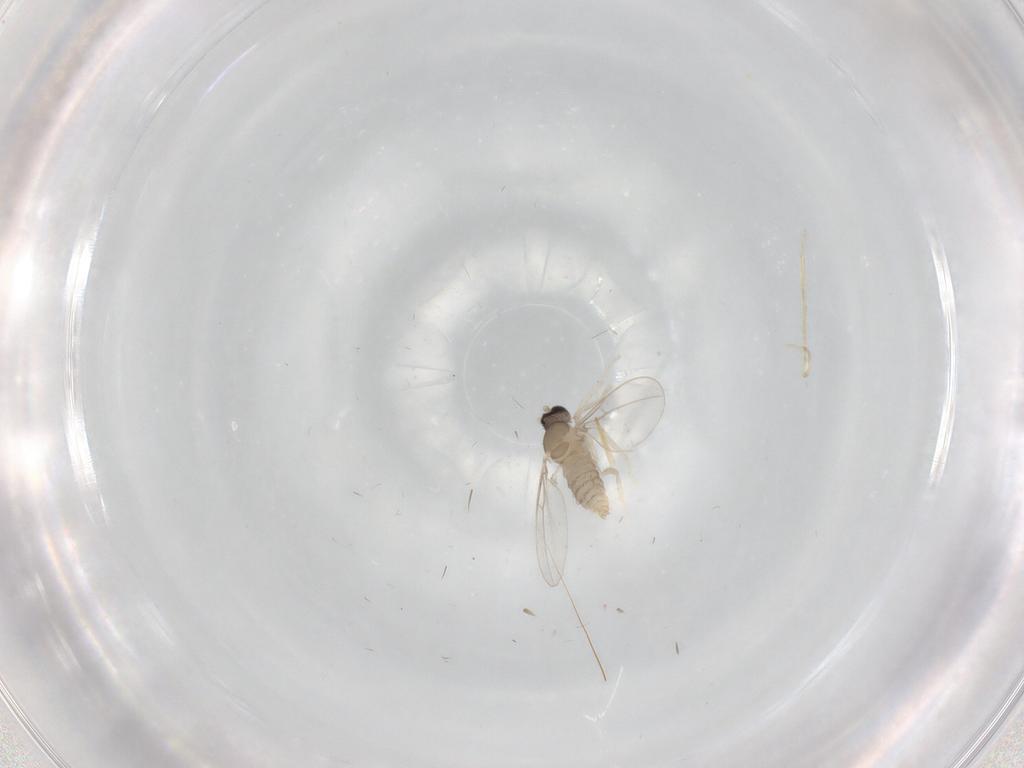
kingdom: Animalia
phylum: Arthropoda
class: Insecta
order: Diptera
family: Cecidomyiidae
